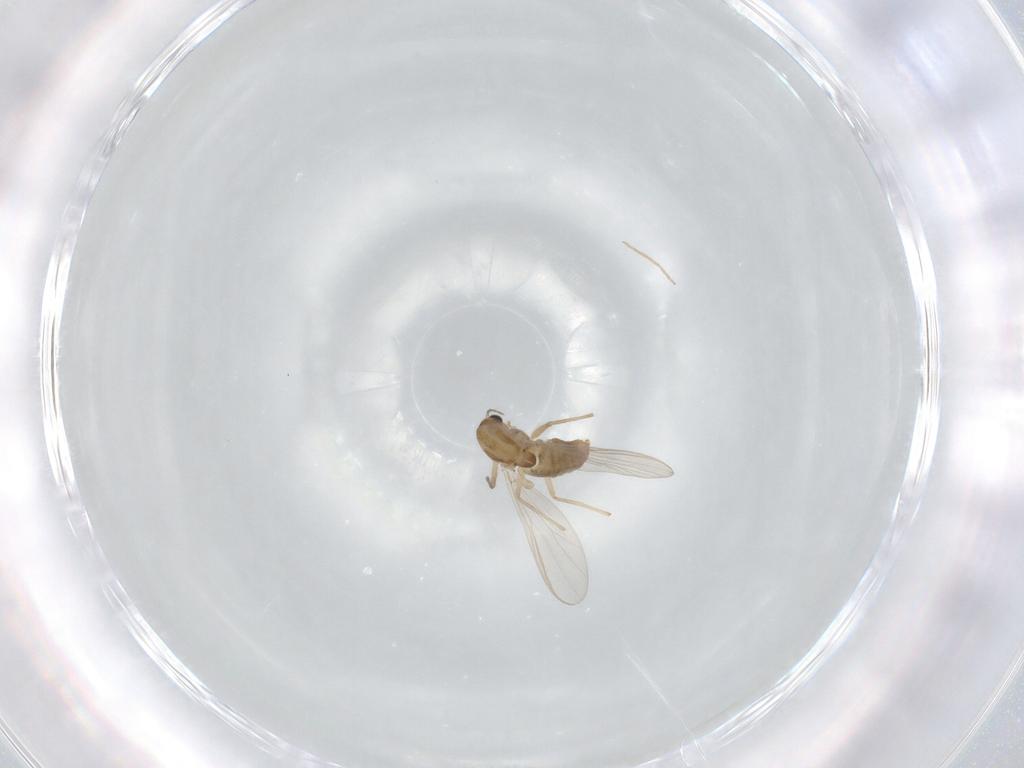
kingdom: Animalia
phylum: Arthropoda
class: Insecta
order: Diptera
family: Chironomidae
